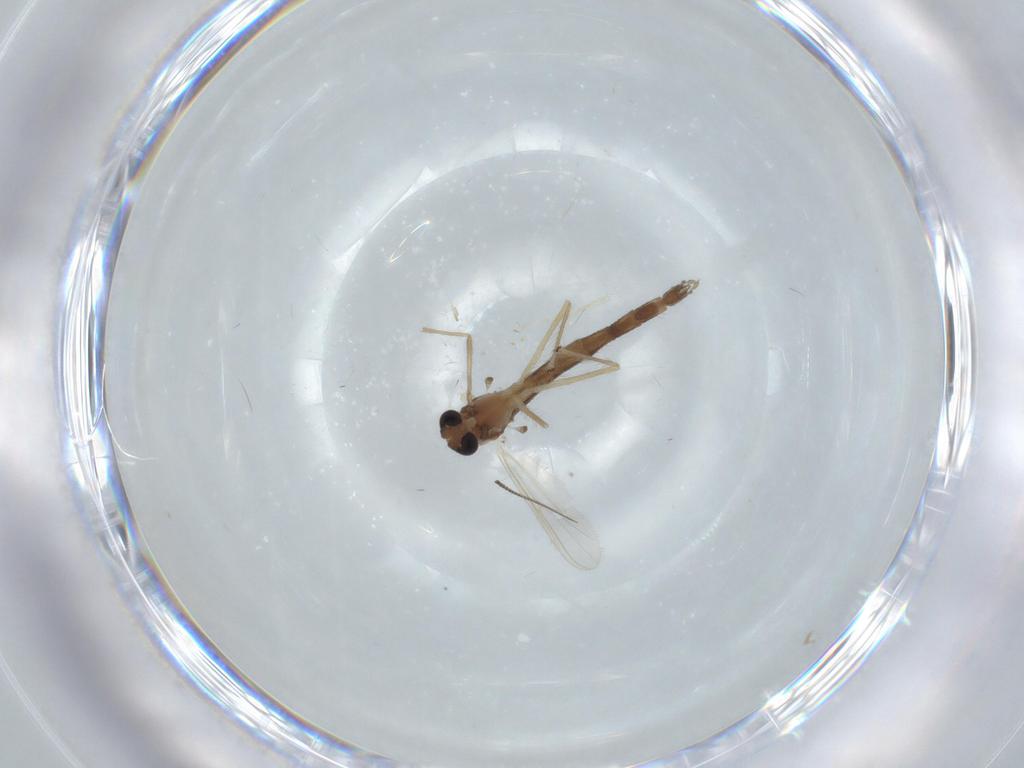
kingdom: Animalia
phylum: Arthropoda
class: Insecta
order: Diptera
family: Chironomidae
